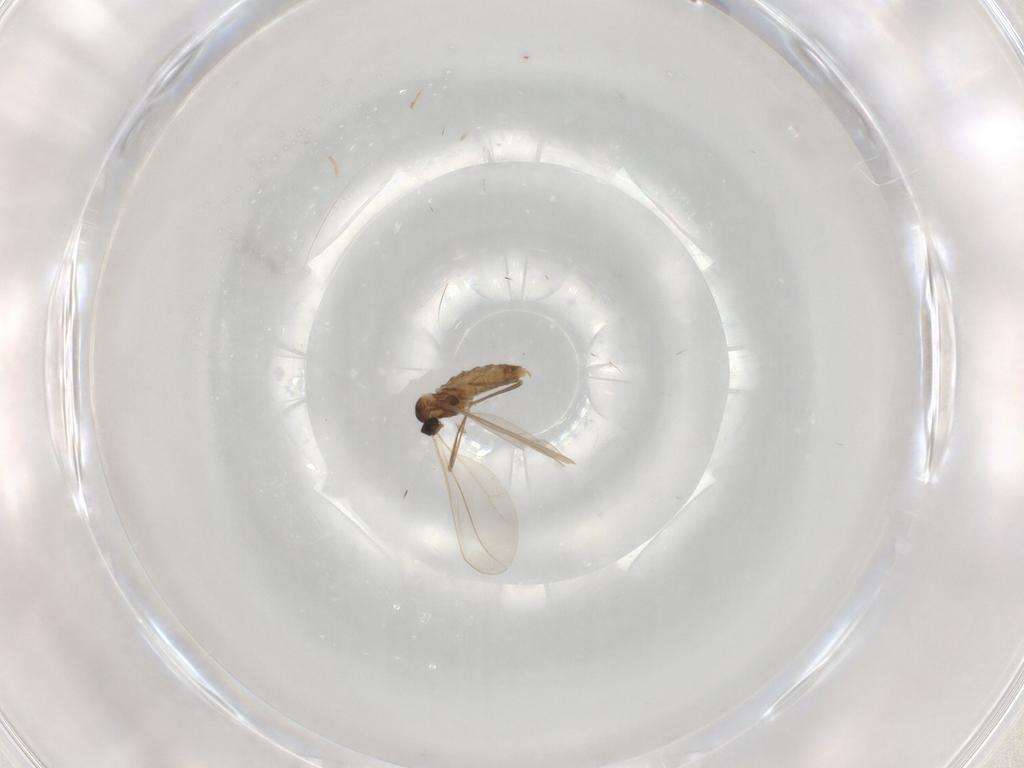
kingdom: Animalia
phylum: Arthropoda
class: Insecta
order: Diptera
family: Cecidomyiidae
